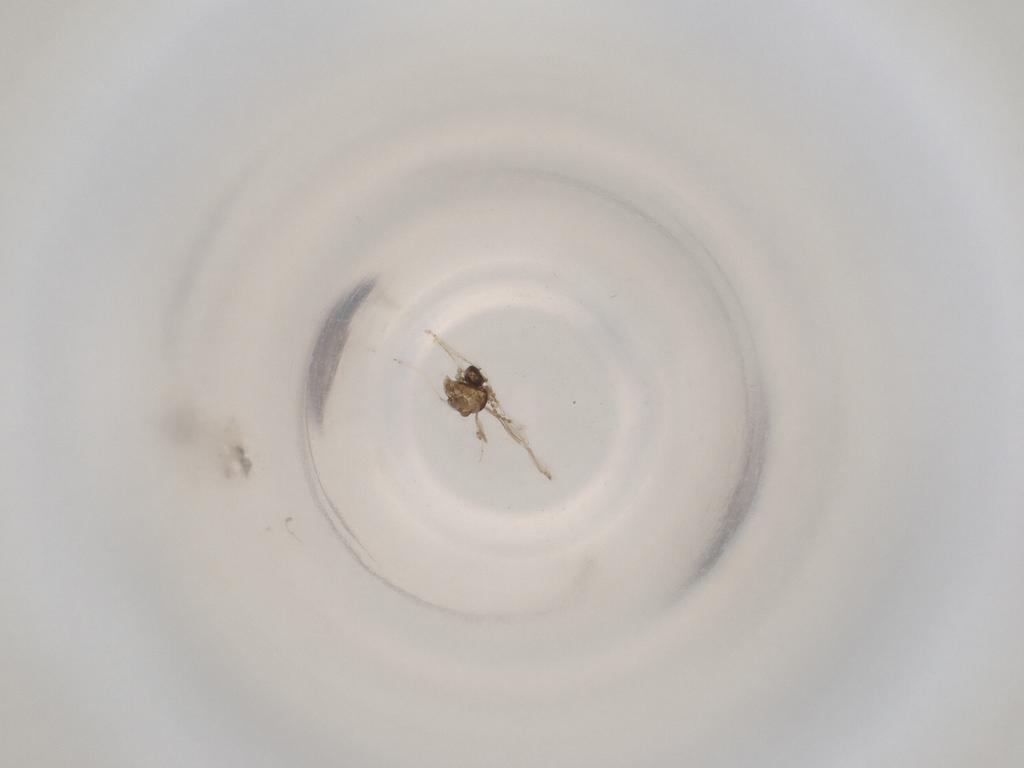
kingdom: Animalia
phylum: Arthropoda
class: Insecta
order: Diptera
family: Cecidomyiidae
